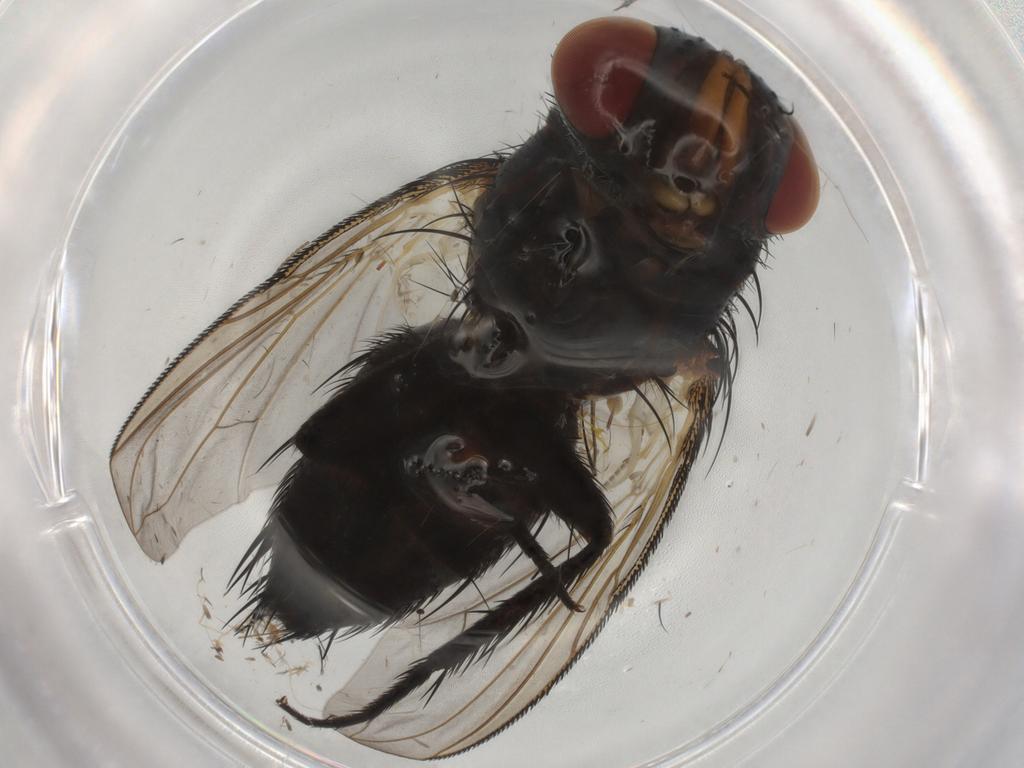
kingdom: Animalia
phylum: Arthropoda
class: Insecta
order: Diptera
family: Tachinidae
